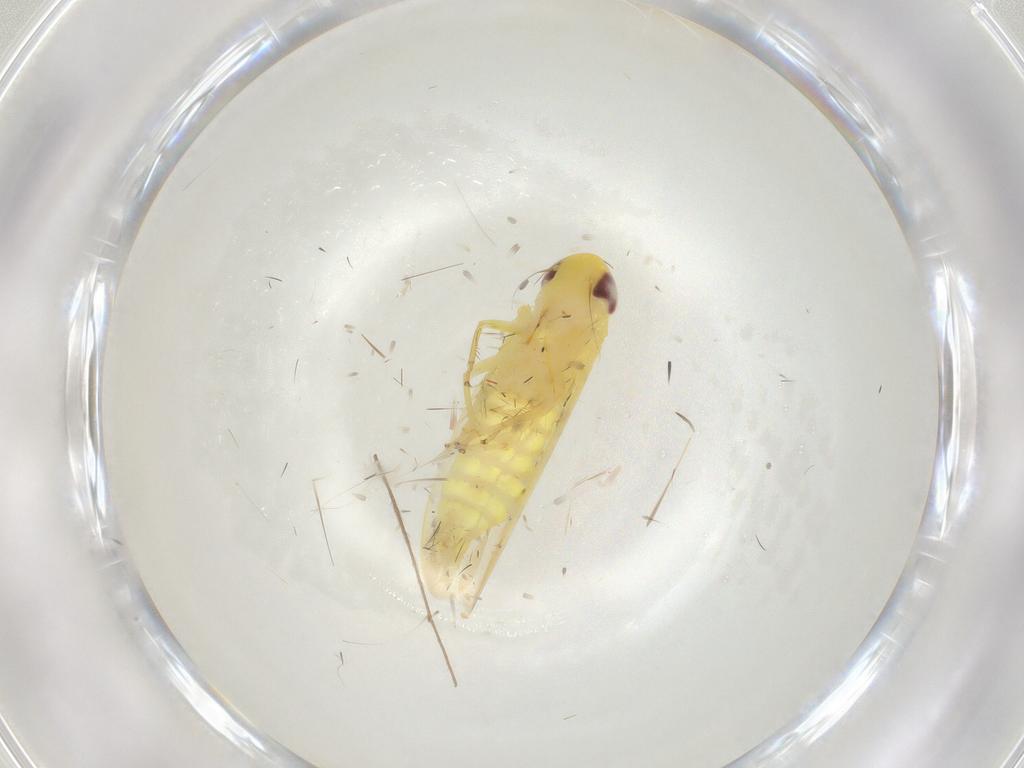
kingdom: Animalia
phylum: Arthropoda
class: Insecta
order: Hemiptera
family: Cicadellidae
